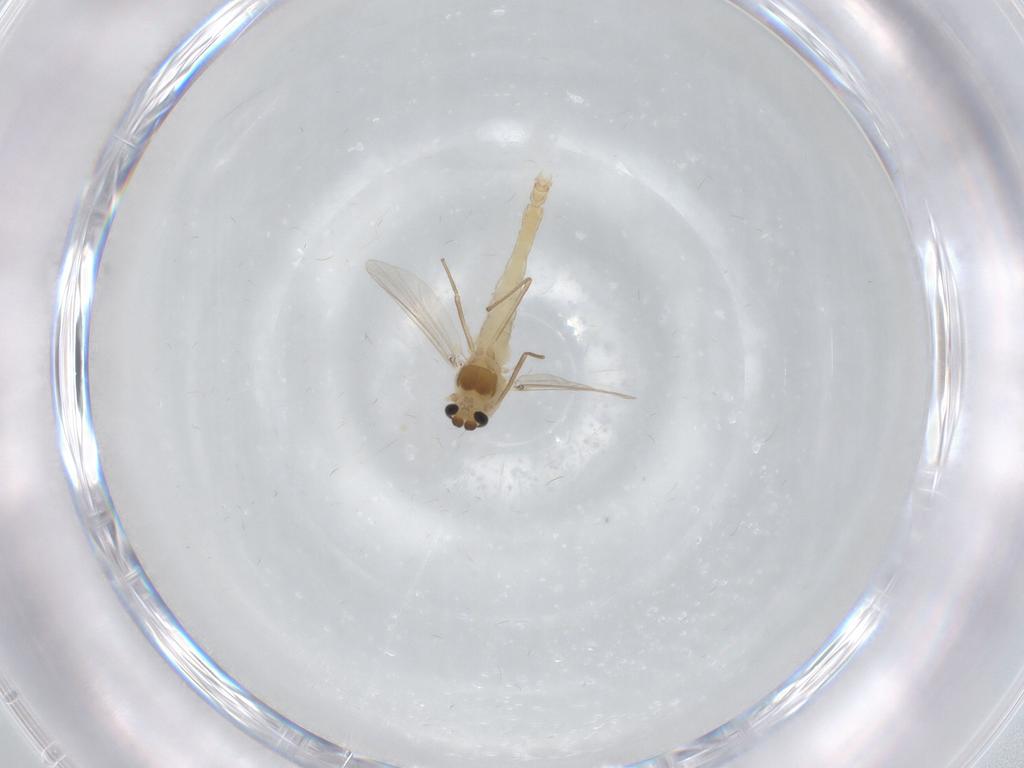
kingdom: Animalia
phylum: Arthropoda
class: Insecta
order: Diptera
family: Chironomidae
